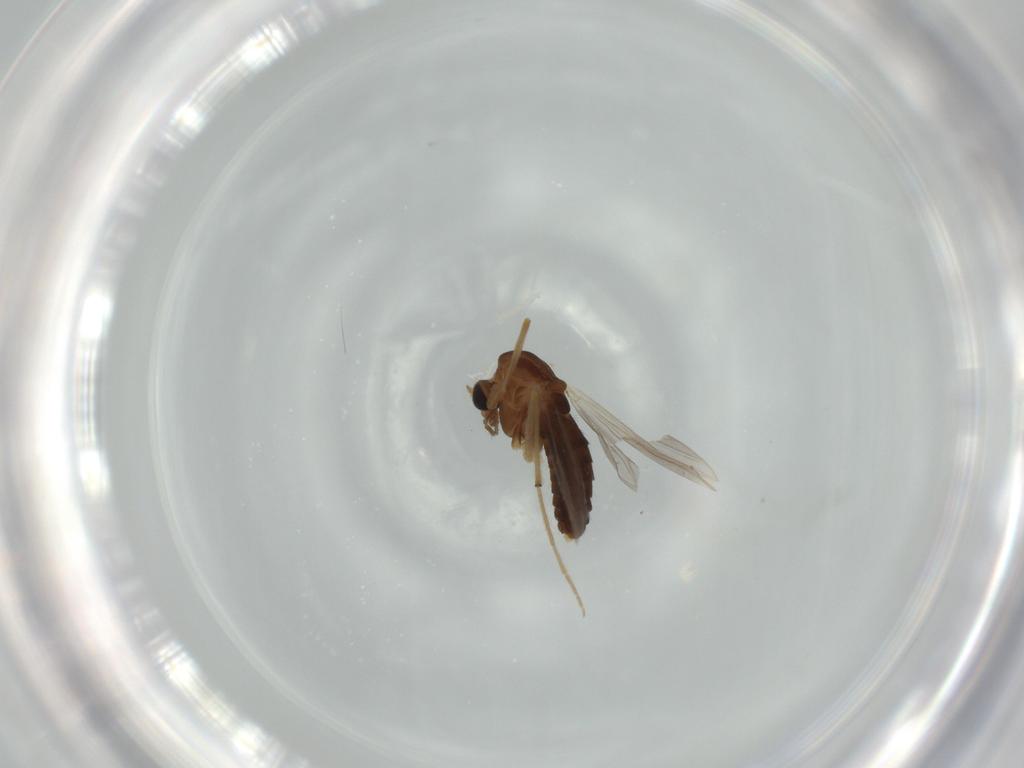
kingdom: Animalia
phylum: Arthropoda
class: Insecta
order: Diptera
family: Chironomidae
